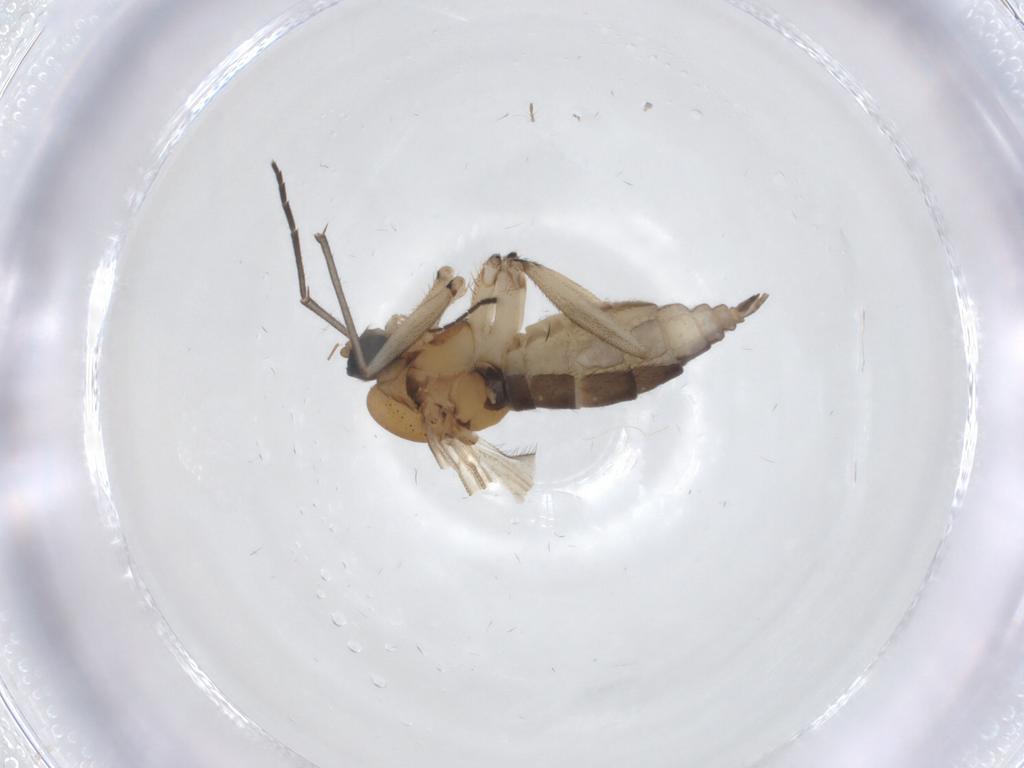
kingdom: Animalia
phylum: Arthropoda
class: Insecta
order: Diptera
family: Sciaridae
